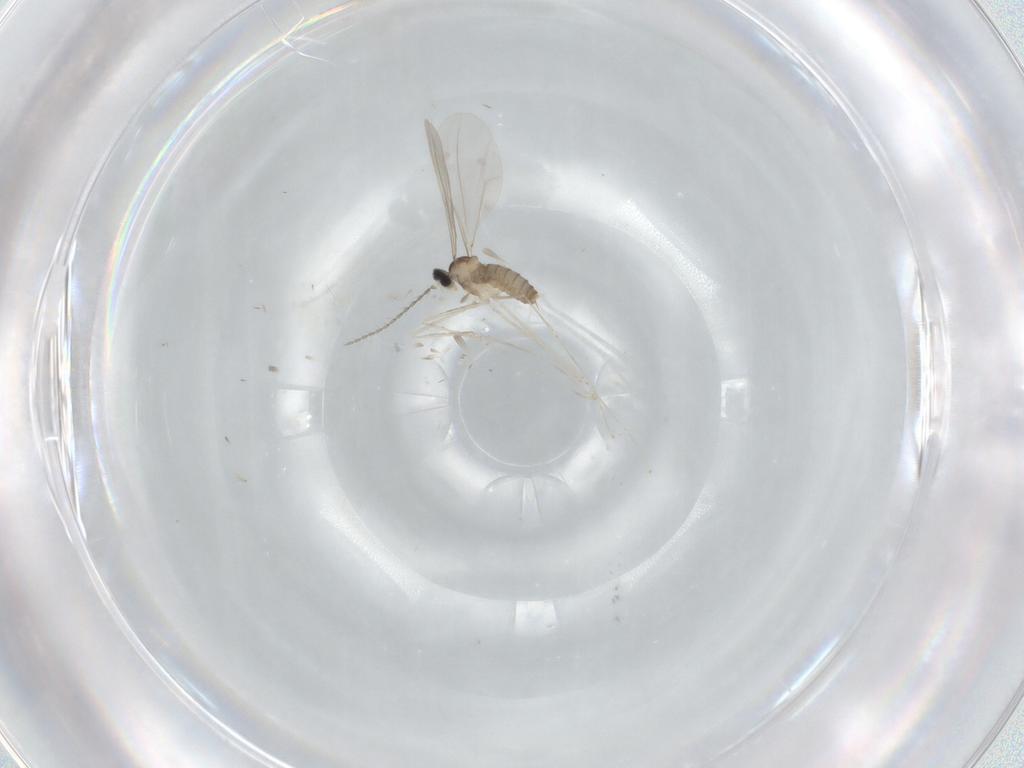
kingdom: Animalia
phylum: Arthropoda
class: Insecta
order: Diptera
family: Cecidomyiidae
